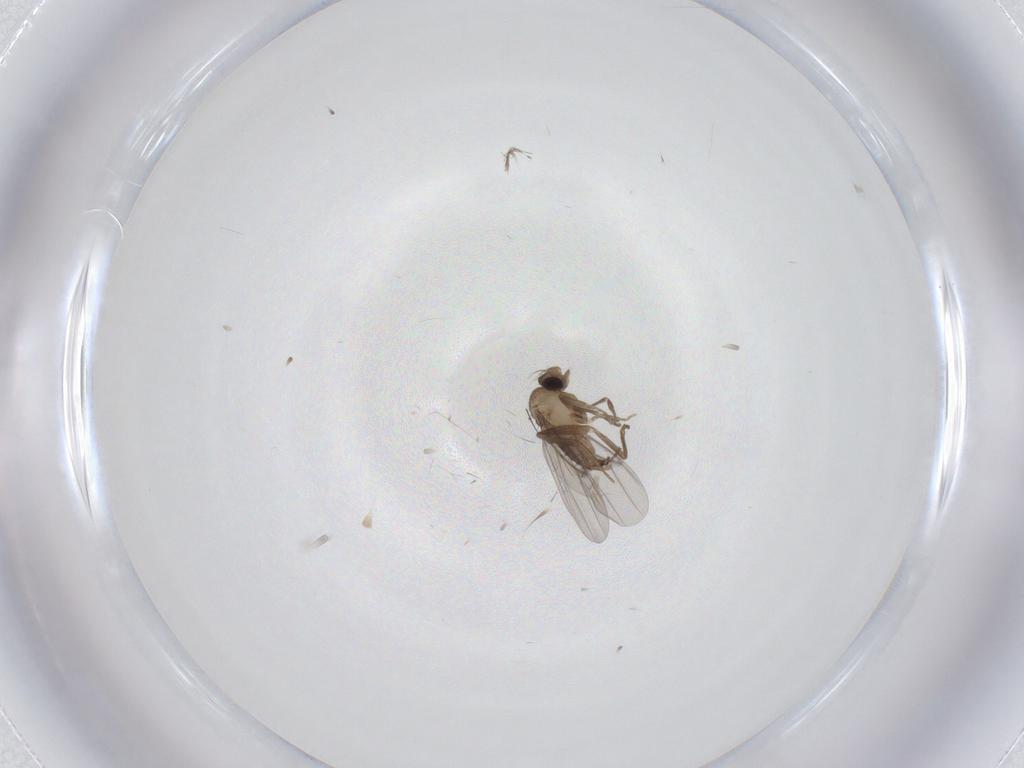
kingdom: Animalia
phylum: Arthropoda
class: Insecta
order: Diptera
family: Phoridae
